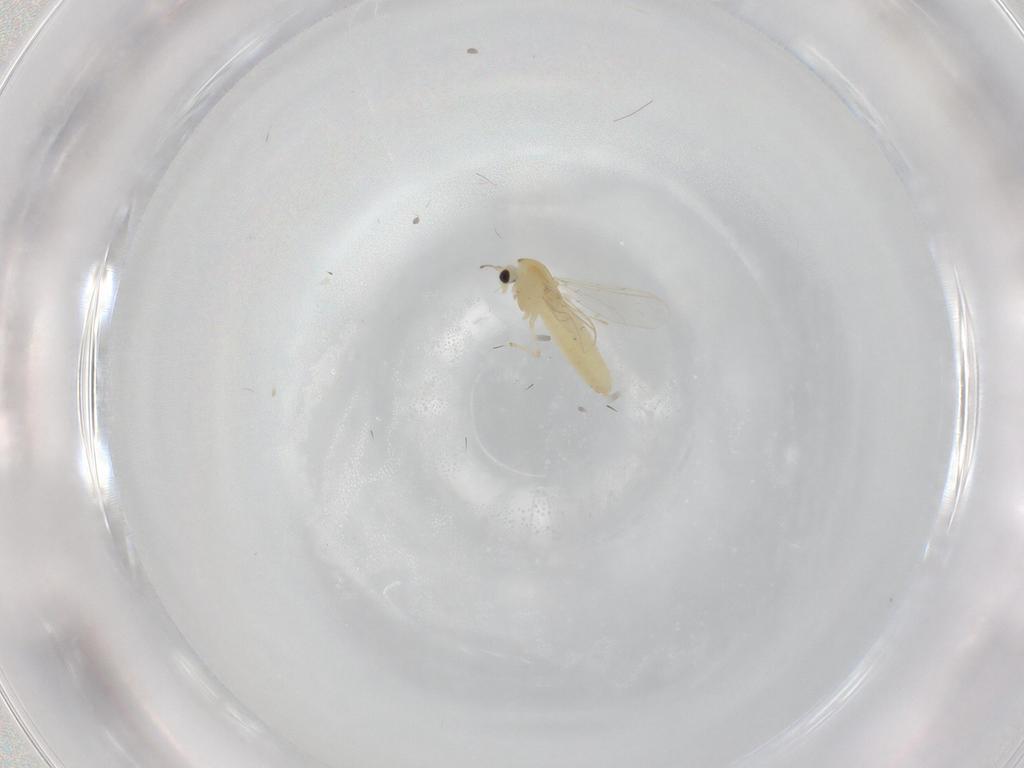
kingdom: Animalia
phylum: Arthropoda
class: Insecta
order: Diptera
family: Chironomidae
